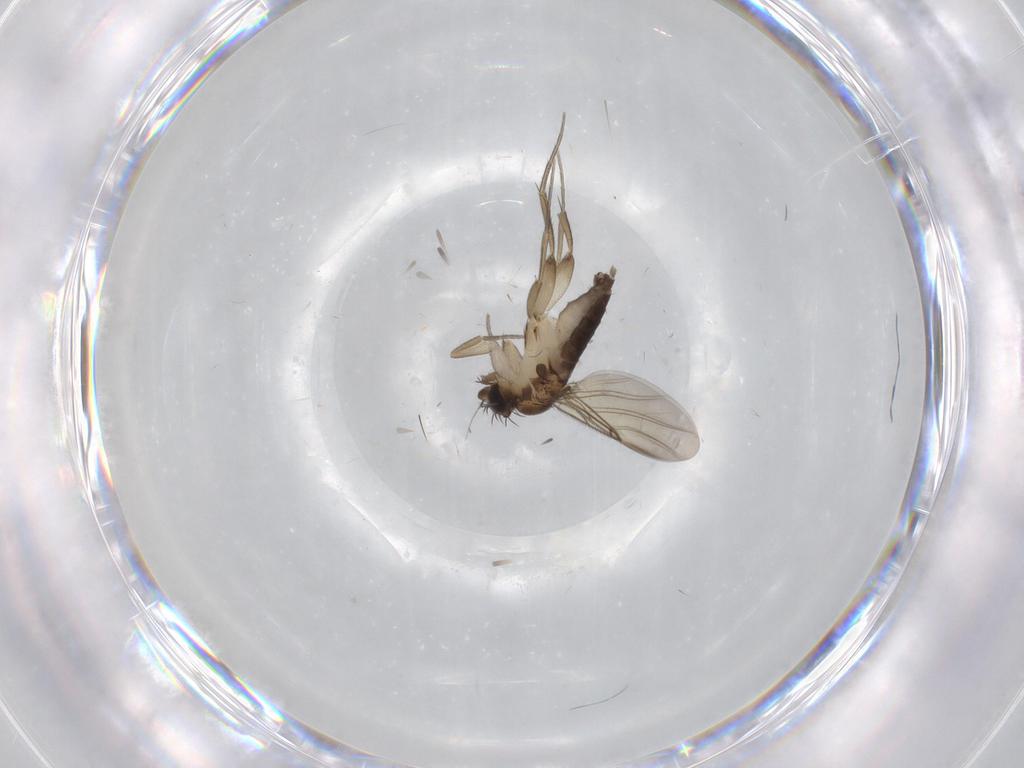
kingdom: Animalia
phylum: Arthropoda
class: Insecta
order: Diptera
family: Phoridae
